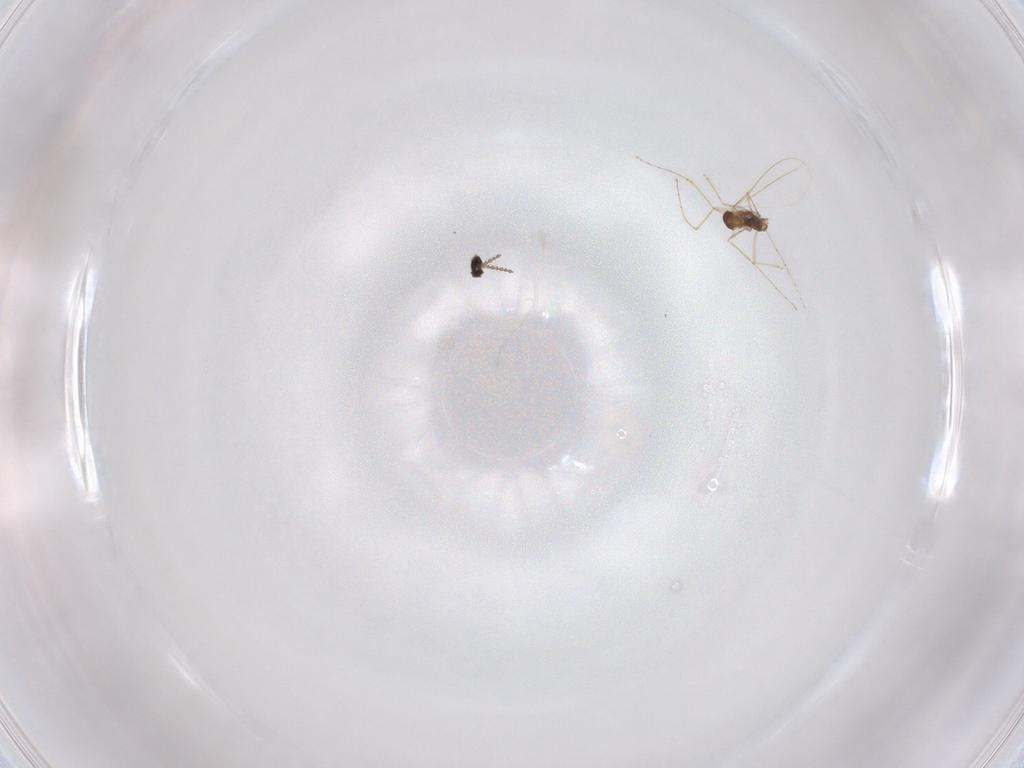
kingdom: Animalia
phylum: Arthropoda
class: Insecta
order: Diptera
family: Cecidomyiidae
